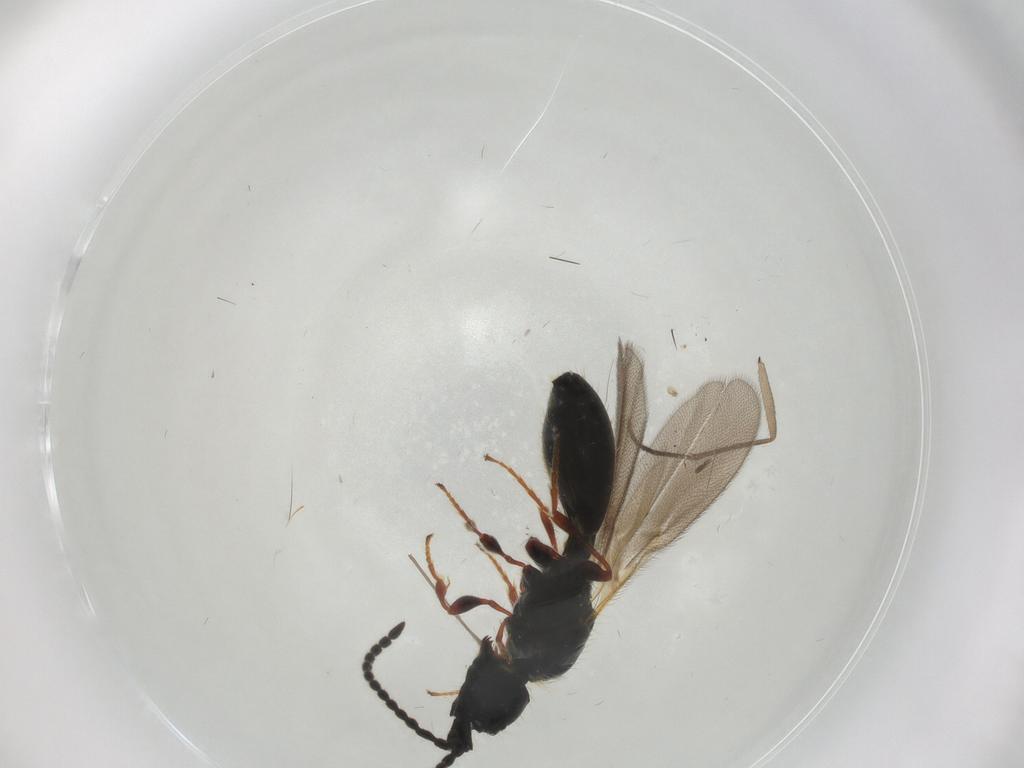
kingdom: Animalia
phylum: Arthropoda
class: Insecta
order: Hymenoptera
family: Diapriidae
